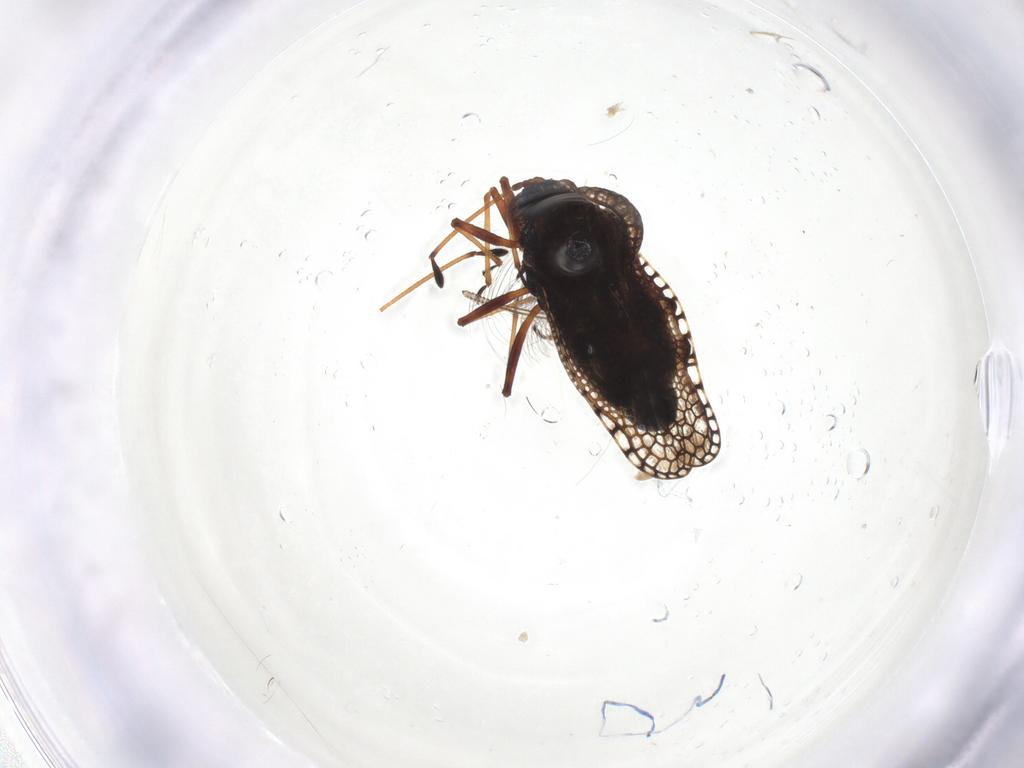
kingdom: Animalia
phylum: Arthropoda
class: Insecta
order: Hemiptera
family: Tingidae
